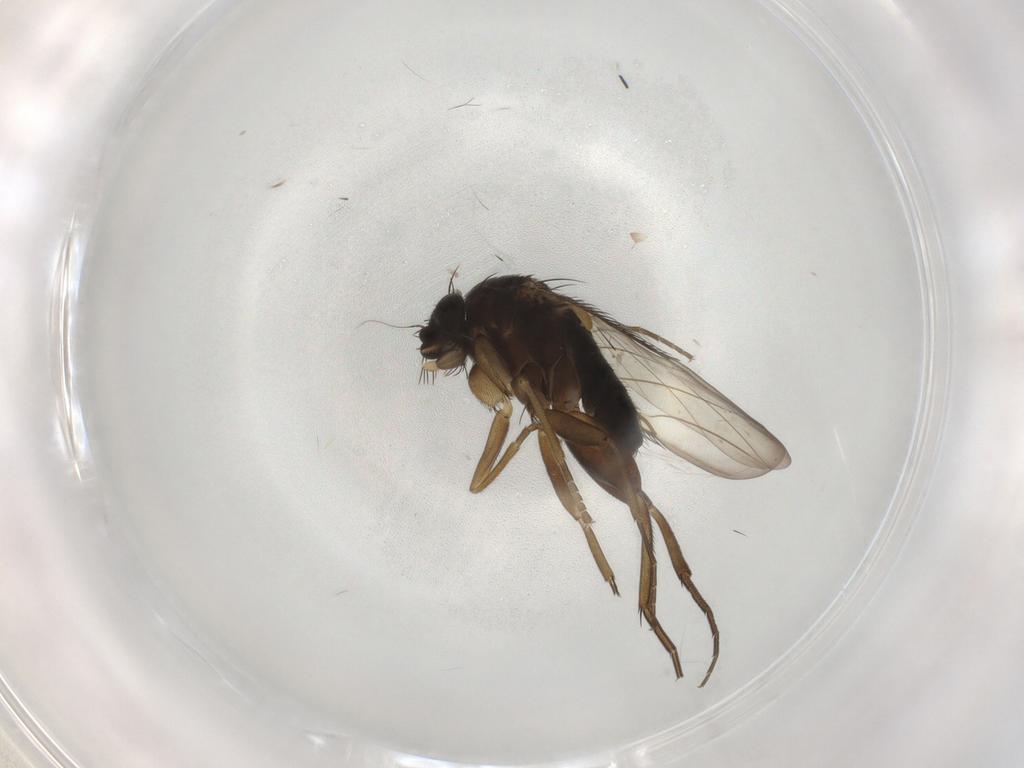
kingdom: Animalia
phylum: Arthropoda
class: Insecta
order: Diptera
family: Phoridae
